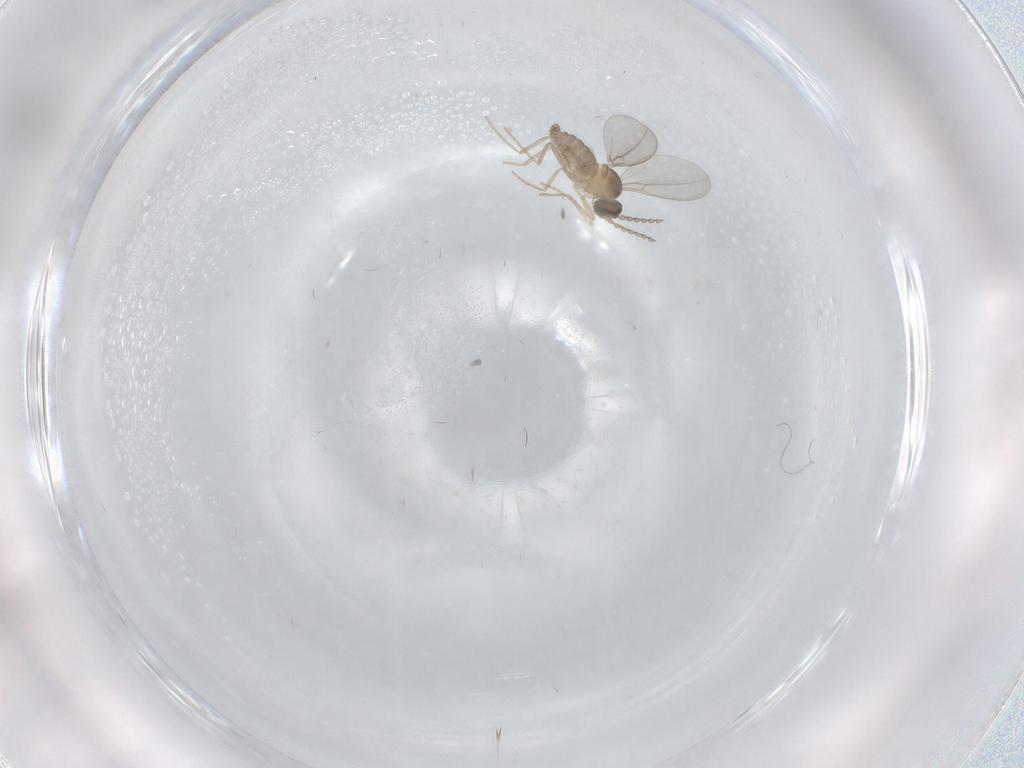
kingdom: Animalia
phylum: Arthropoda
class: Insecta
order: Diptera
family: Cecidomyiidae
